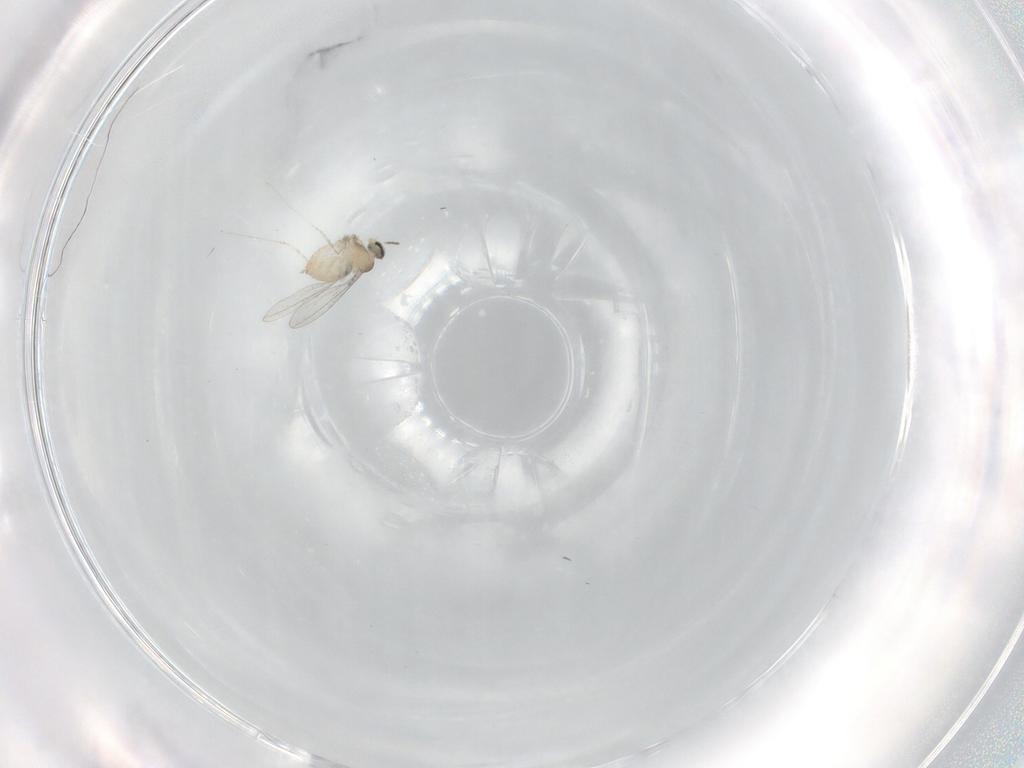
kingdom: Animalia
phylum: Arthropoda
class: Insecta
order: Diptera
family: Cecidomyiidae
